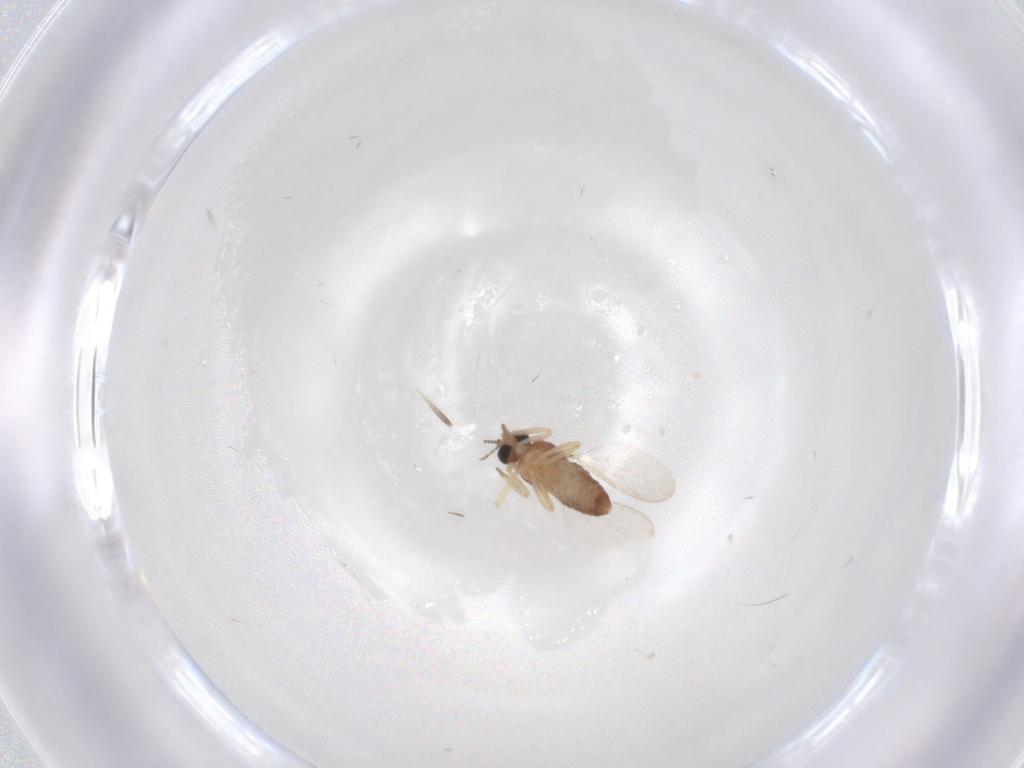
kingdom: Animalia
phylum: Arthropoda
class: Insecta
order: Diptera
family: Ceratopogonidae
